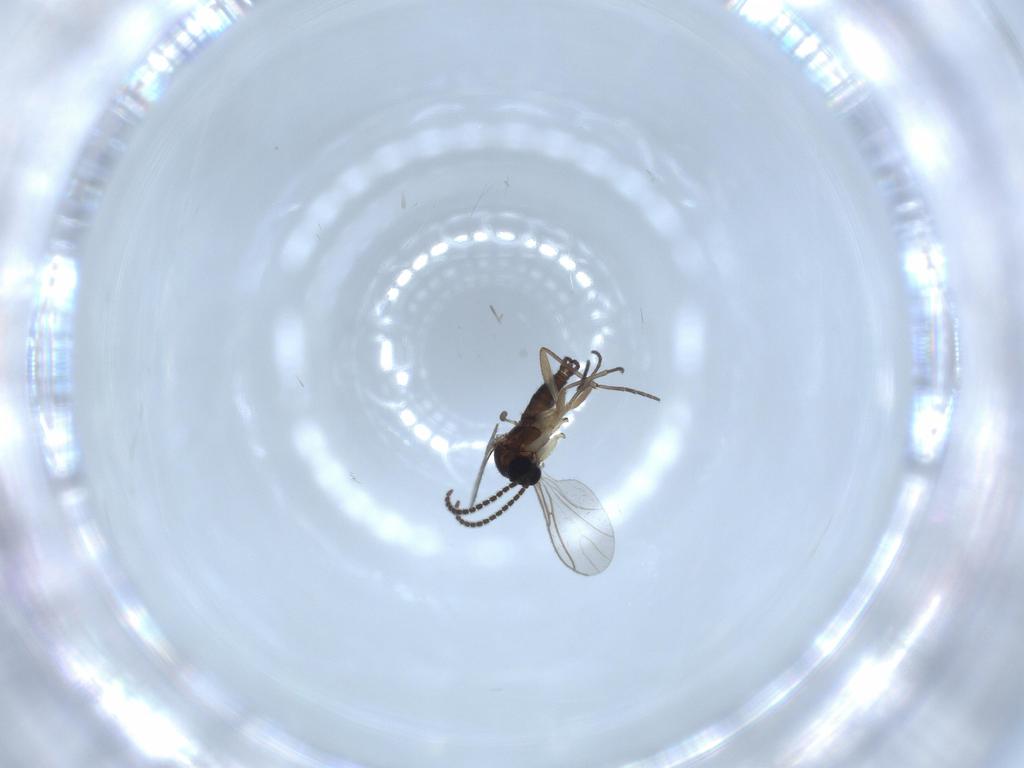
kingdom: Animalia
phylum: Arthropoda
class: Insecta
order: Diptera
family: Sciaridae
